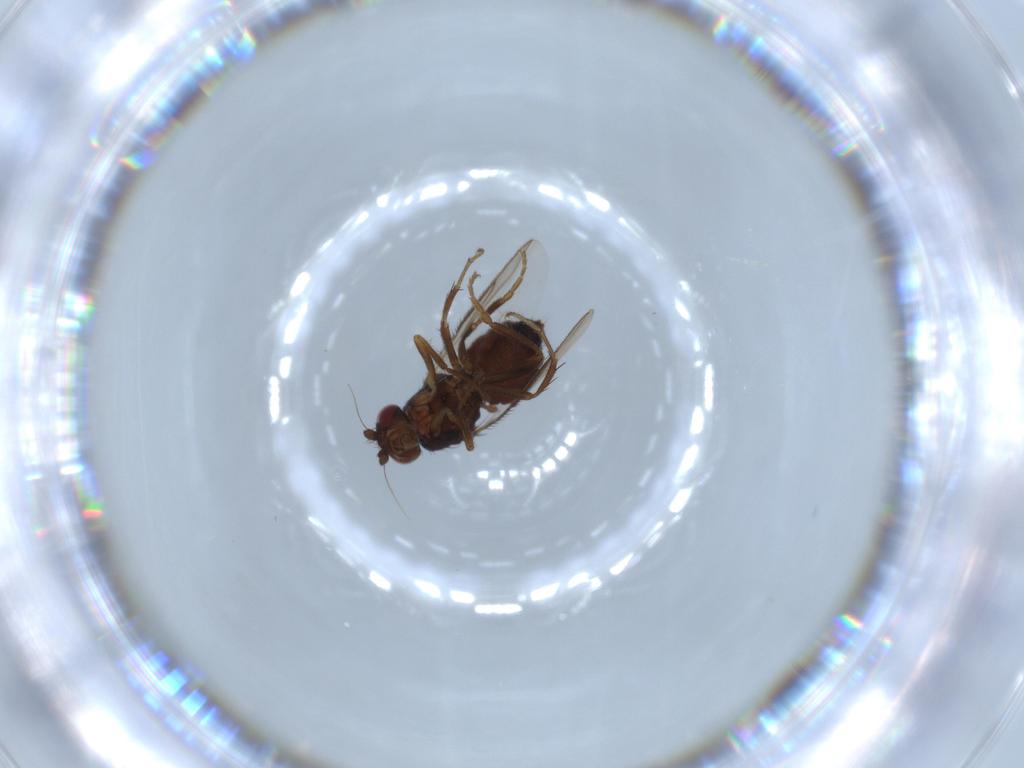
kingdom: Animalia
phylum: Arthropoda
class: Insecta
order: Diptera
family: Sphaeroceridae
